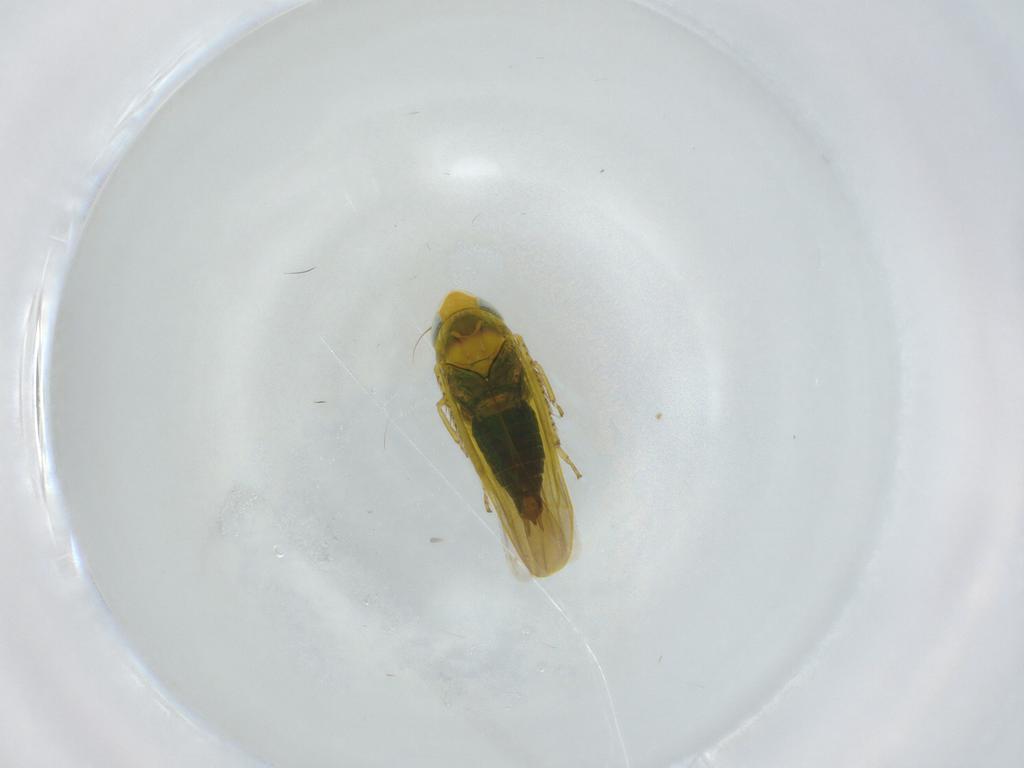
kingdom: Animalia
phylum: Arthropoda
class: Insecta
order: Hemiptera
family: Cicadellidae
